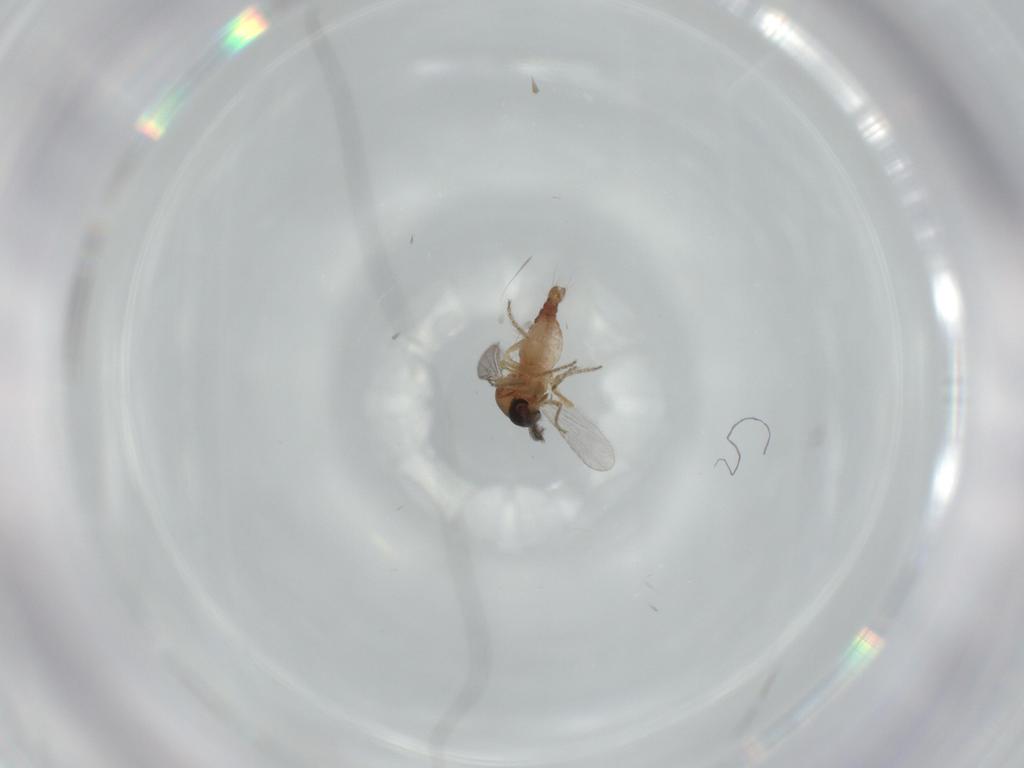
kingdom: Animalia
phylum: Arthropoda
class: Insecta
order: Diptera
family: Ceratopogonidae
